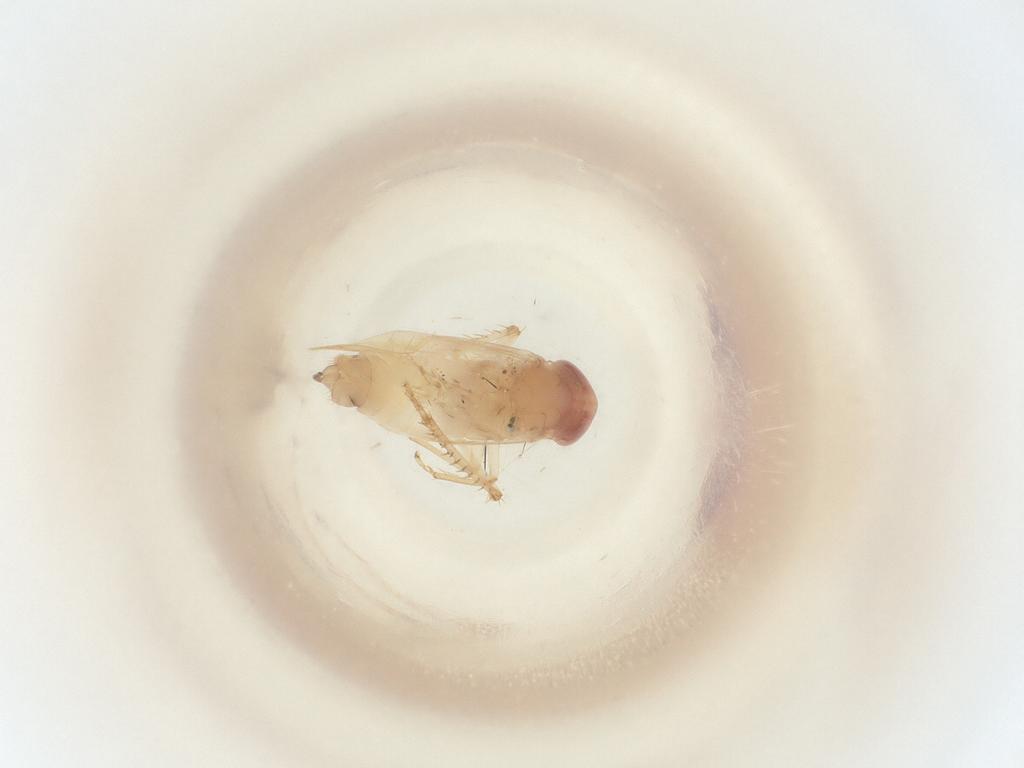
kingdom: Animalia
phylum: Arthropoda
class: Insecta
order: Hemiptera
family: Cicadellidae
